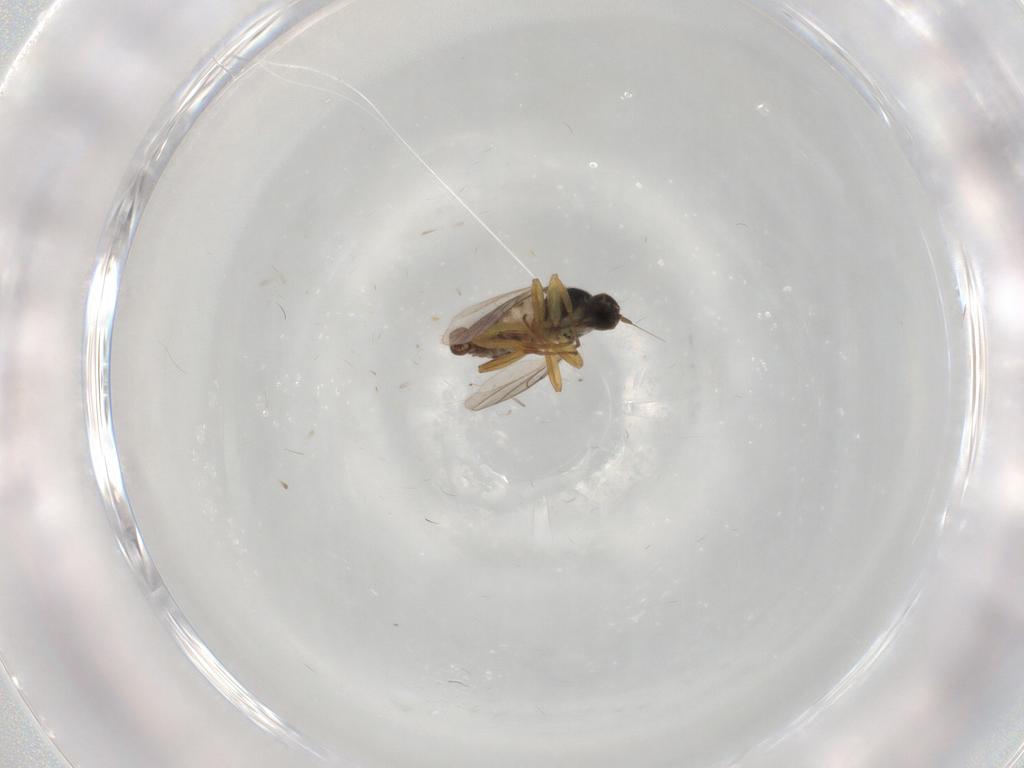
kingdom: Animalia
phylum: Arthropoda
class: Insecta
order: Diptera
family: Hybotidae
